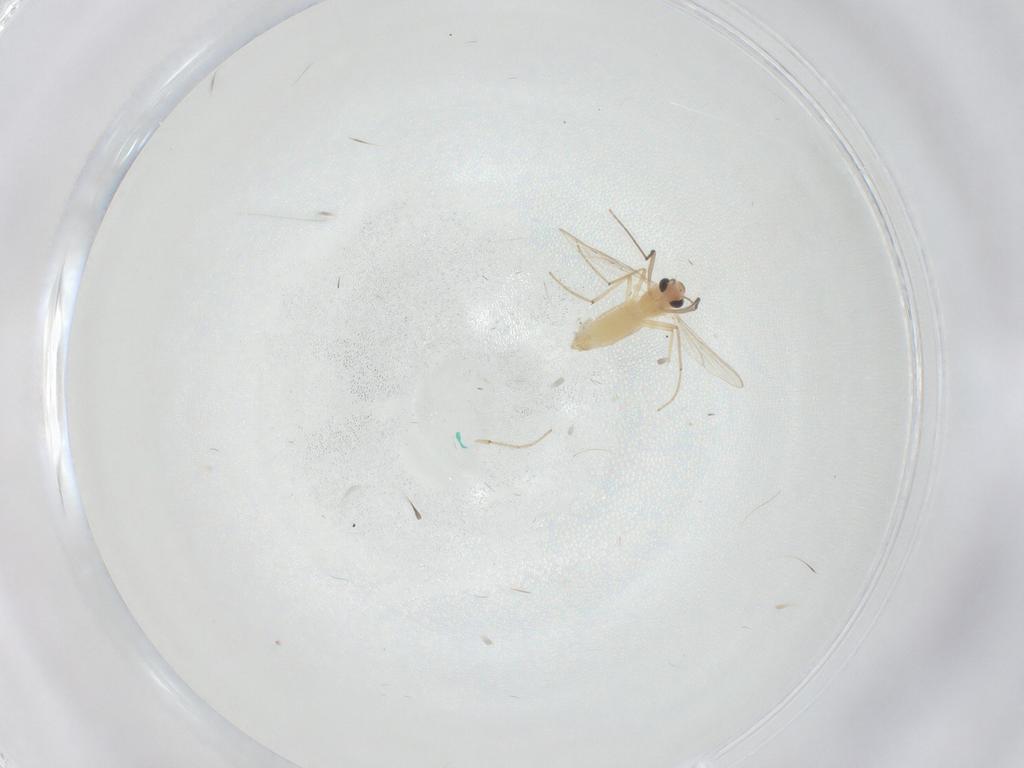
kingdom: Animalia
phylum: Arthropoda
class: Insecta
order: Diptera
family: Chironomidae
